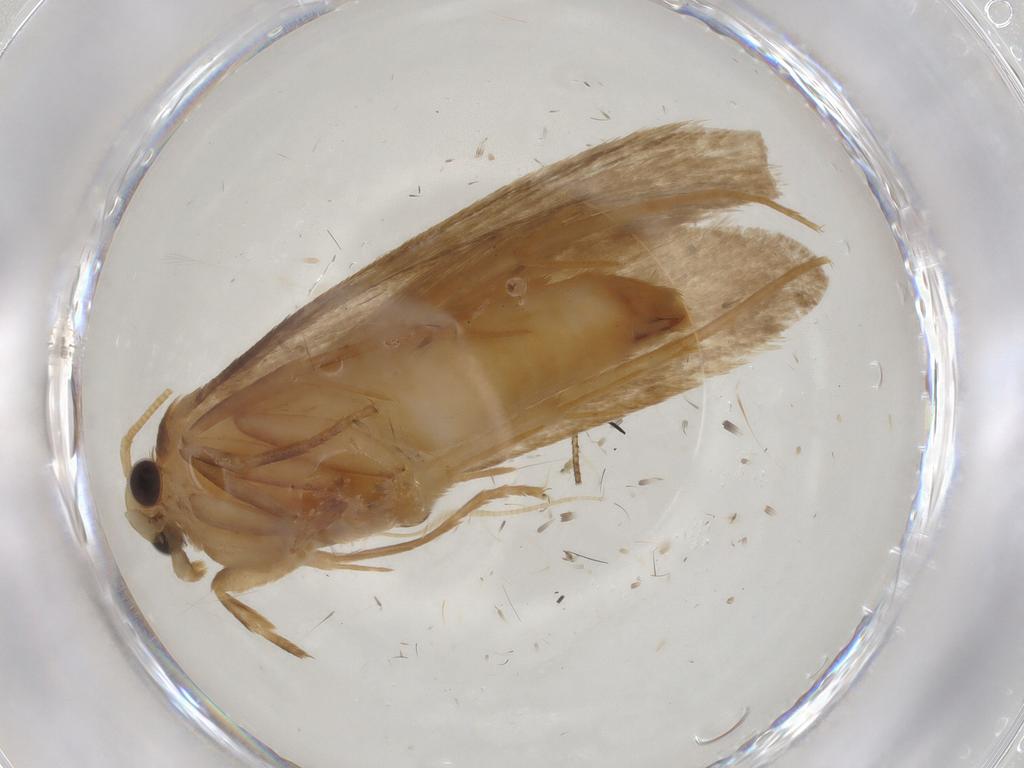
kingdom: Animalia
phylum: Arthropoda
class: Insecta
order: Lepidoptera
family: Tineidae
